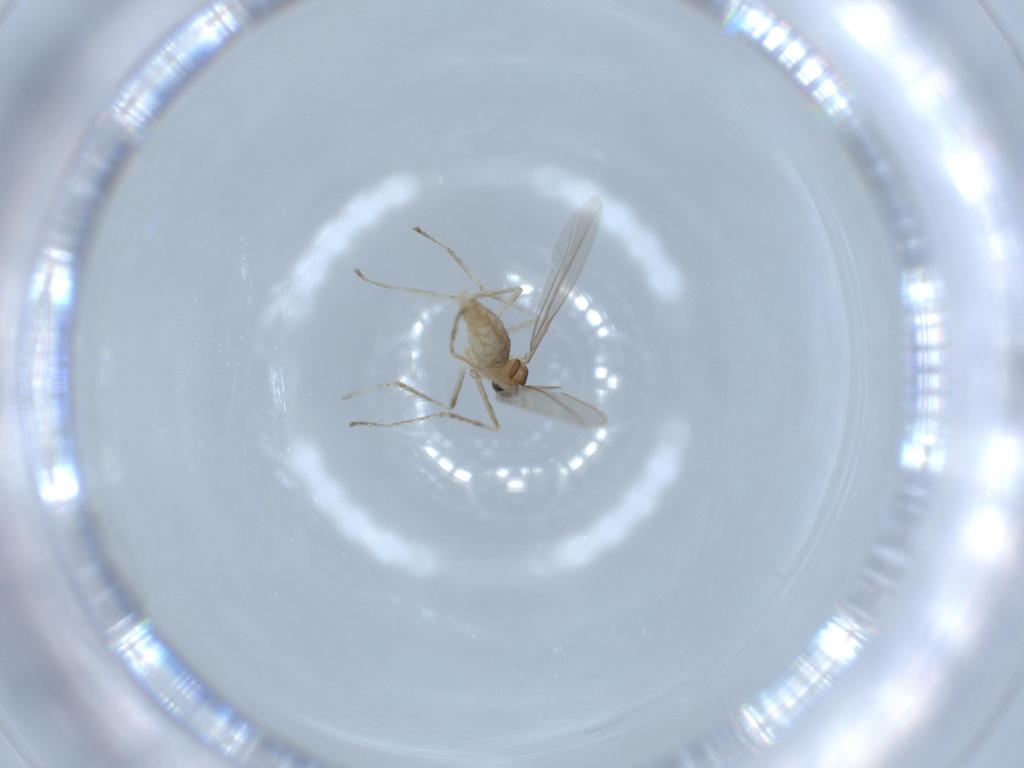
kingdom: Animalia
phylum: Arthropoda
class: Insecta
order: Diptera
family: Cecidomyiidae
